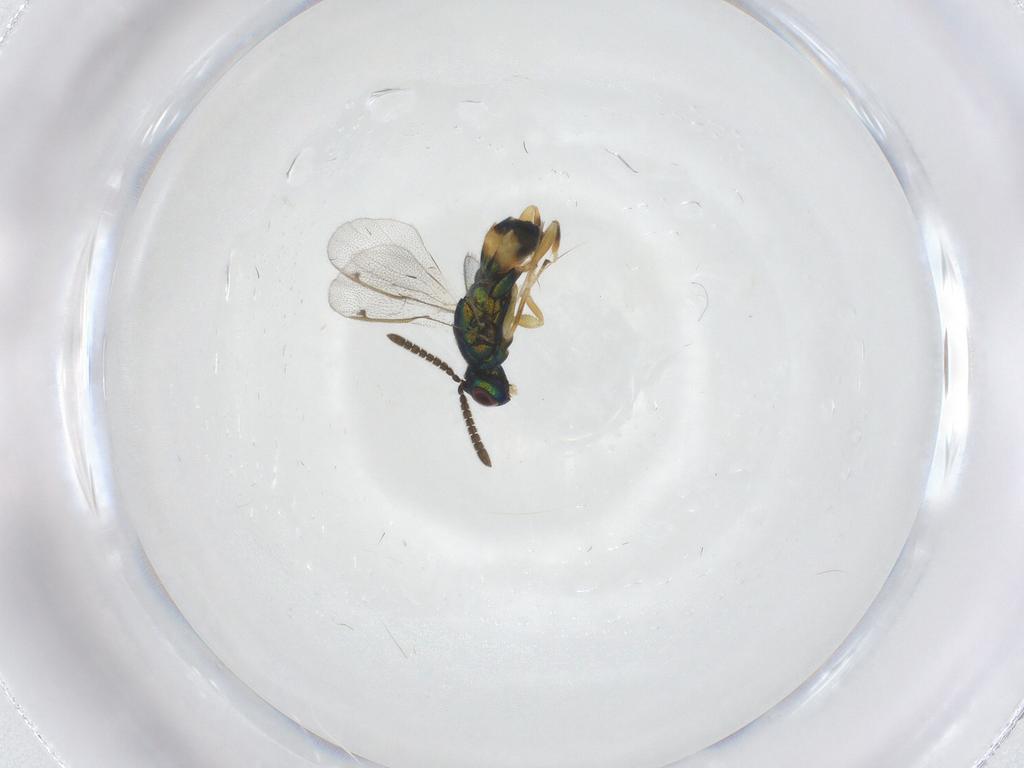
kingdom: Animalia
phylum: Arthropoda
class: Insecta
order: Hymenoptera
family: Torymidae
